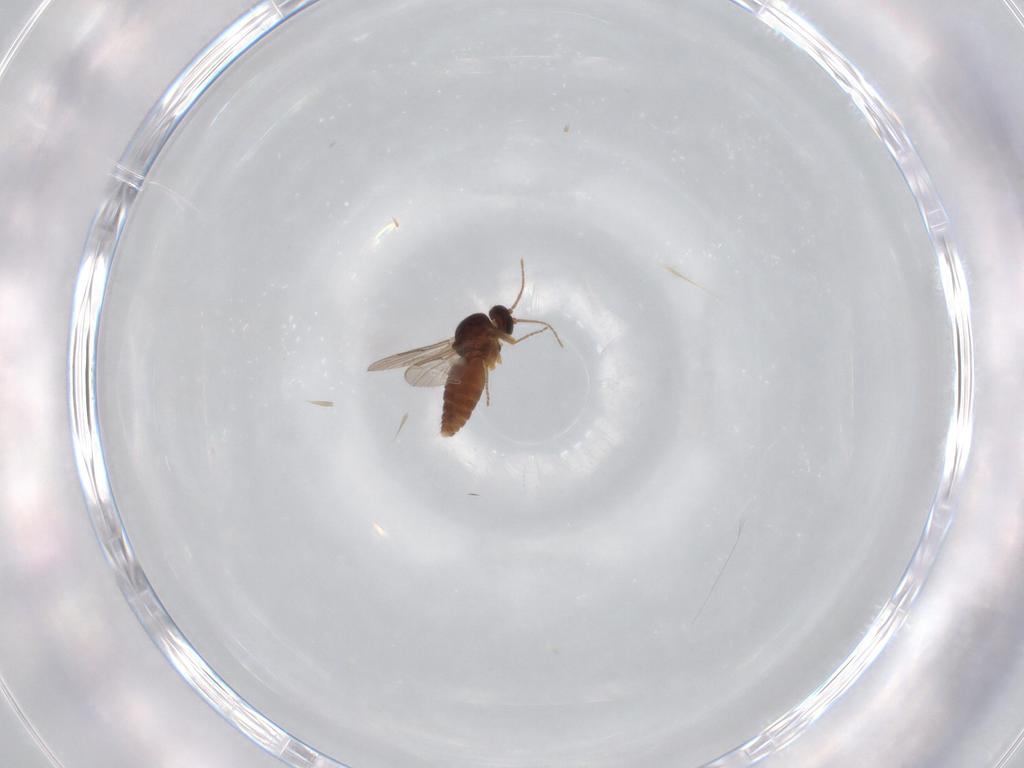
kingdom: Animalia
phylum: Arthropoda
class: Insecta
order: Diptera
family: Ceratopogonidae
